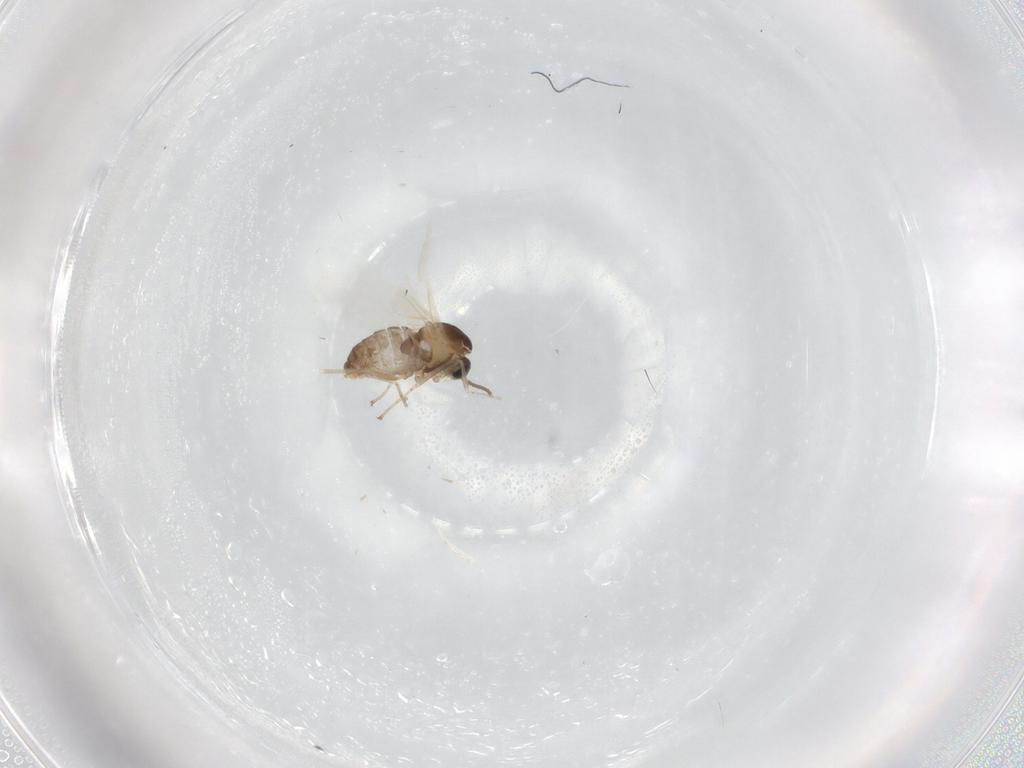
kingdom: Animalia
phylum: Arthropoda
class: Insecta
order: Diptera
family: Cecidomyiidae
